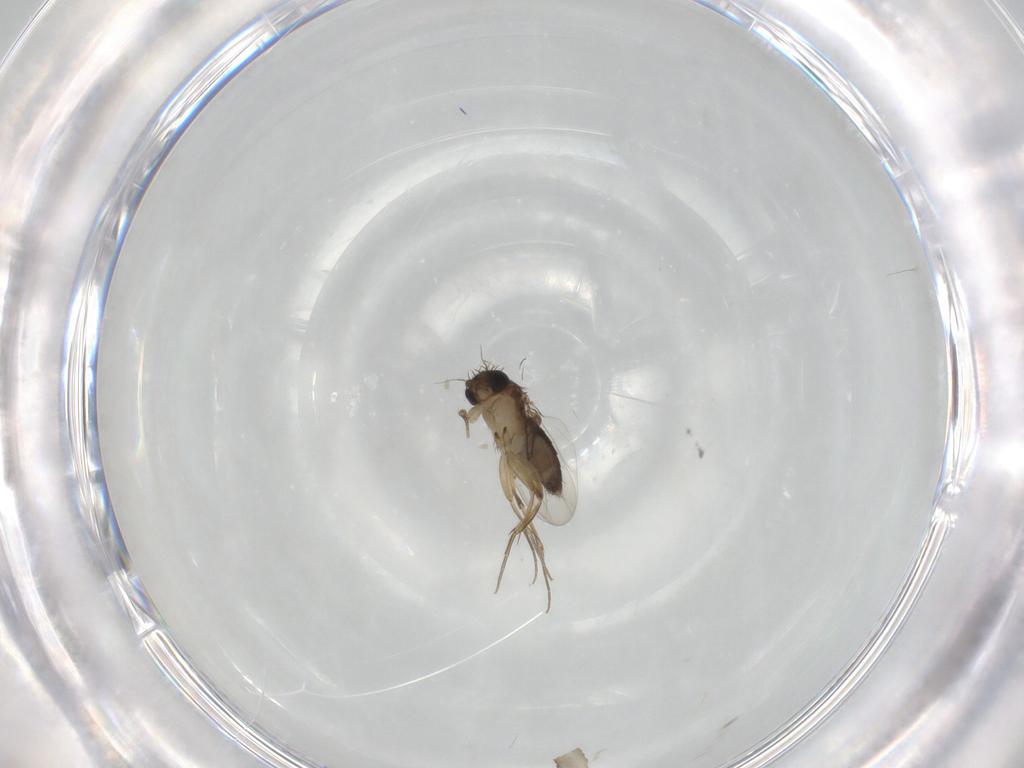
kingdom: Animalia
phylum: Arthropoda
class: Insecta
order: Diptera
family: Phoridae
